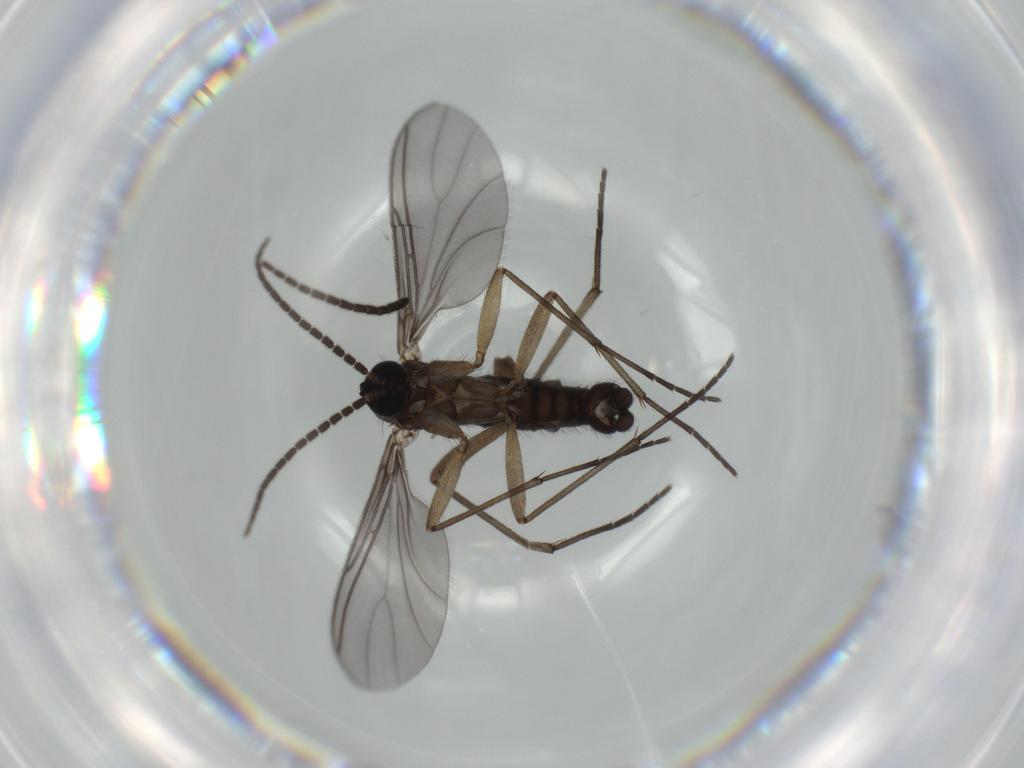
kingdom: Animalia
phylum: Arthropoda
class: Insecta
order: Diptera
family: Sciaridae
